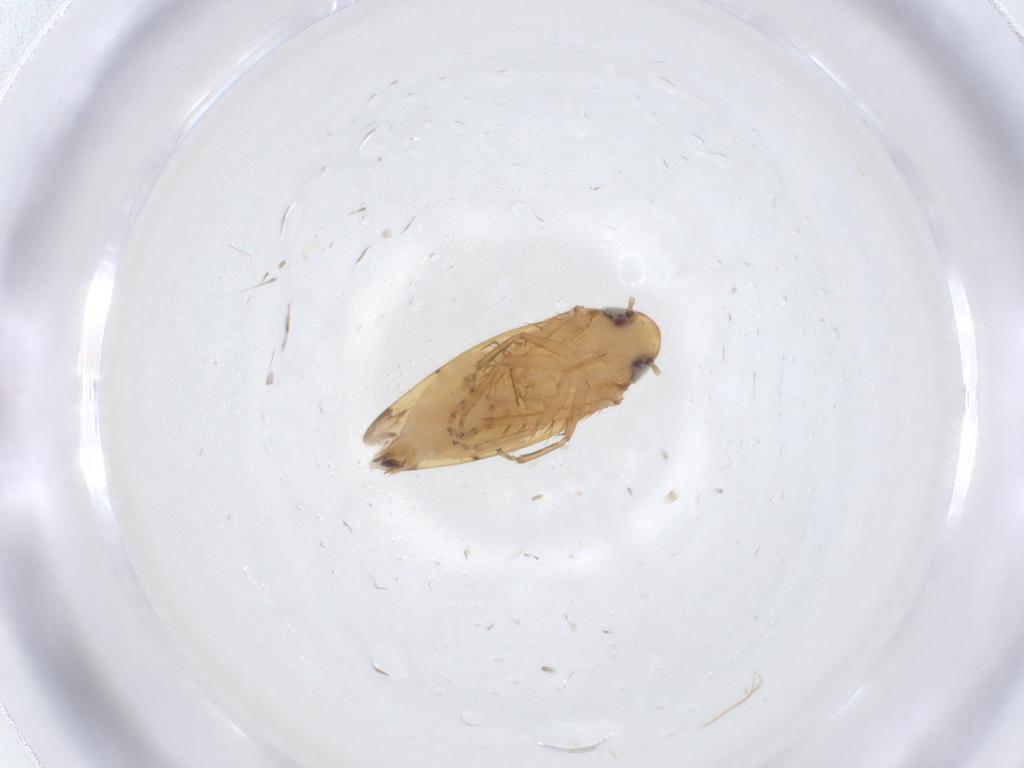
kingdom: Animalia
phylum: Arthropoda
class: Insecta
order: Hemiptera
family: Cicadellidae
